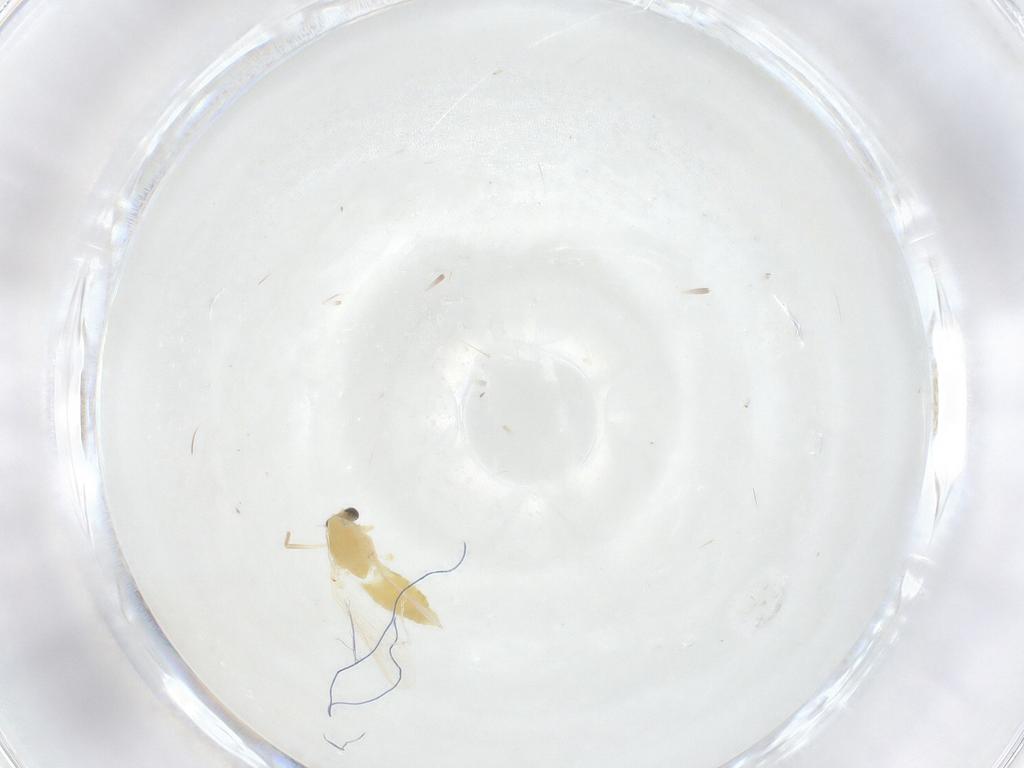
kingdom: Animalia
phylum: Arthropoda
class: Insecta
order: Diptera
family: Chironomidae
